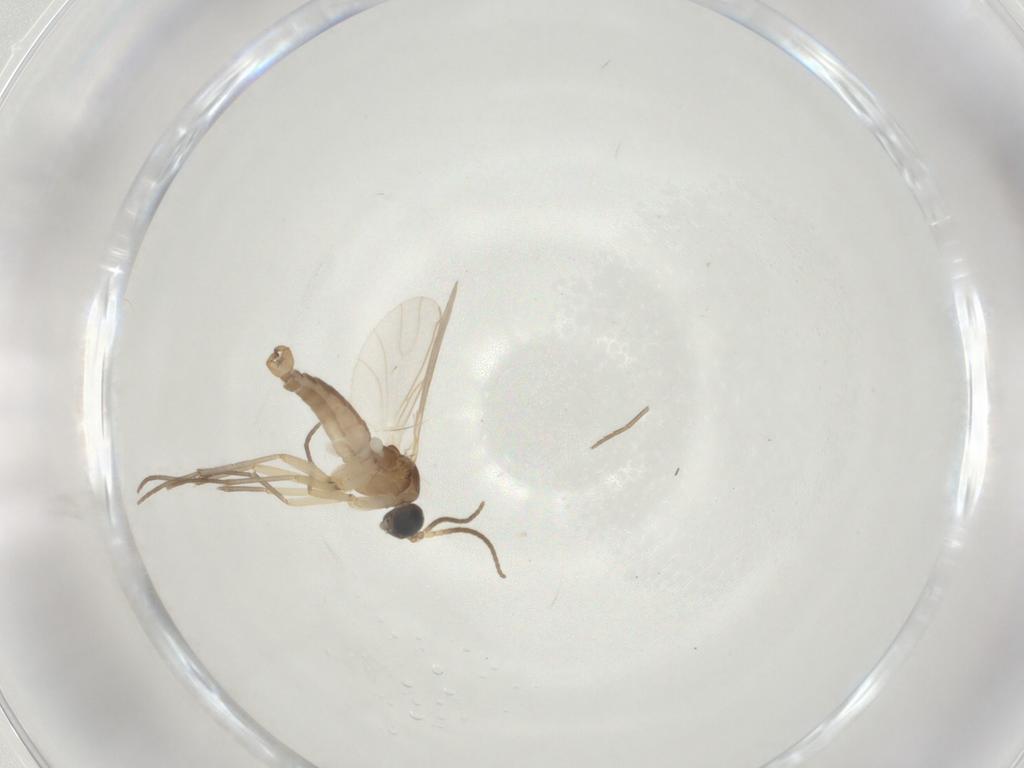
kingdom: Animalia
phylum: Arthropoda
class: Insecta
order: Diptera
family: Sciaridae
